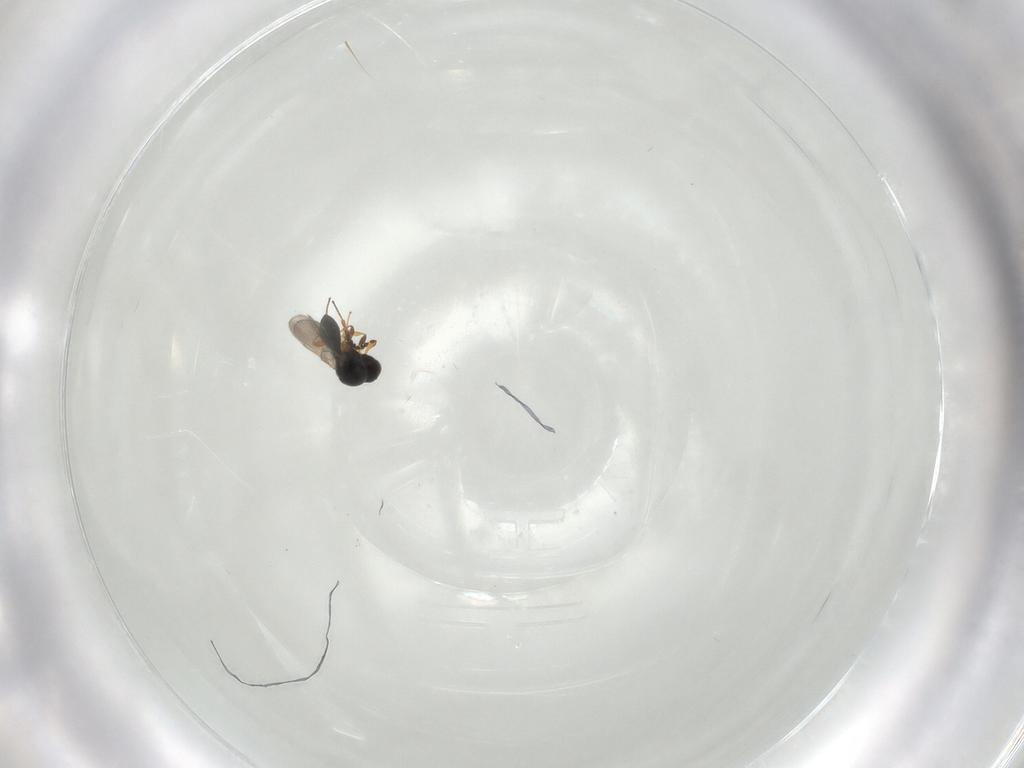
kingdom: Animalia
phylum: Arthropoda
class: Insecta
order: Hymenoptera
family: Platygastridae
